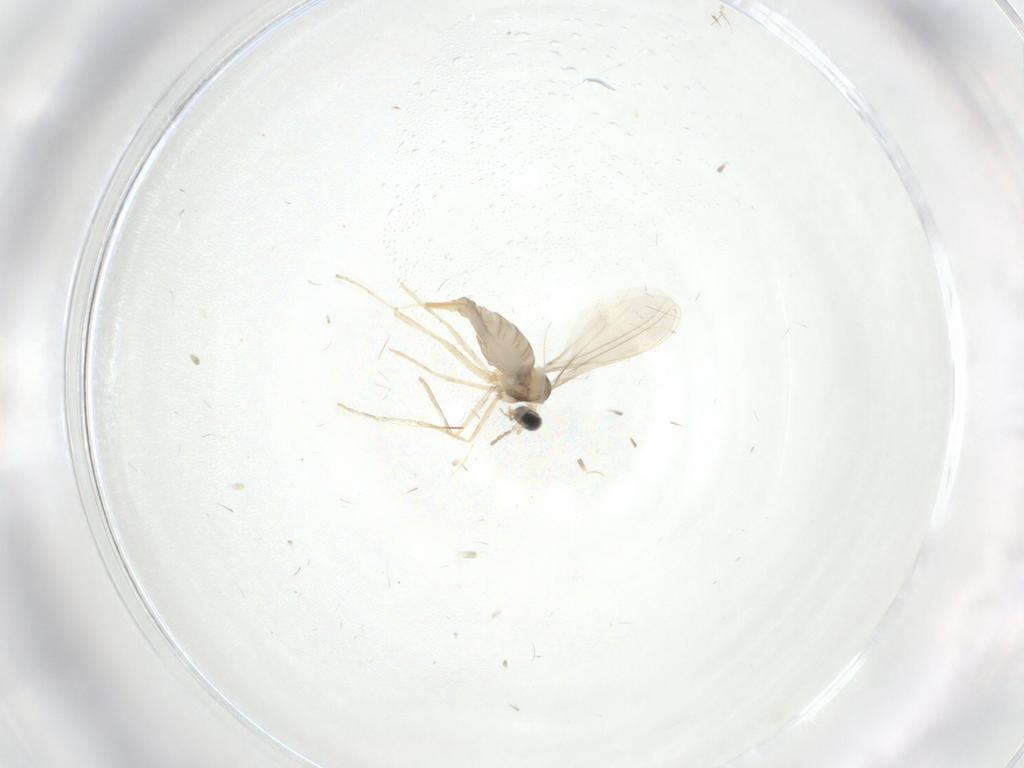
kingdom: Animalia
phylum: Arthropoda
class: Insecta
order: Diptera
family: Cecidomyiidae
